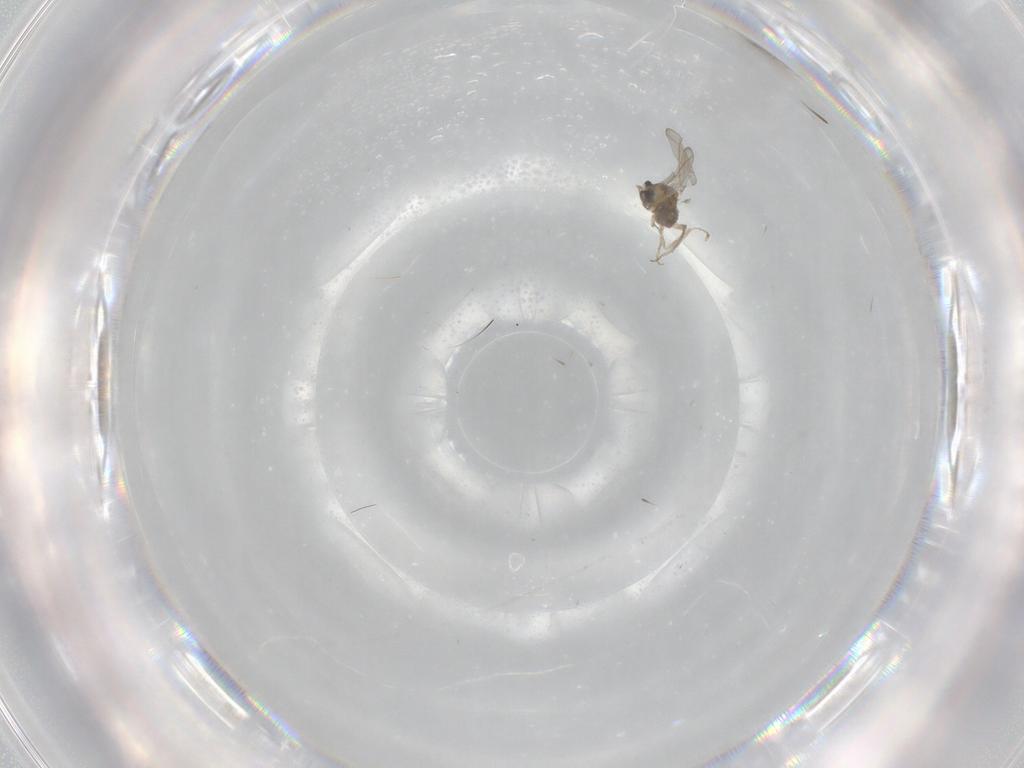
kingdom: Animalia
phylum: Arthropoda
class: Insecta
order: Diptera
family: Cecidomyiidae
